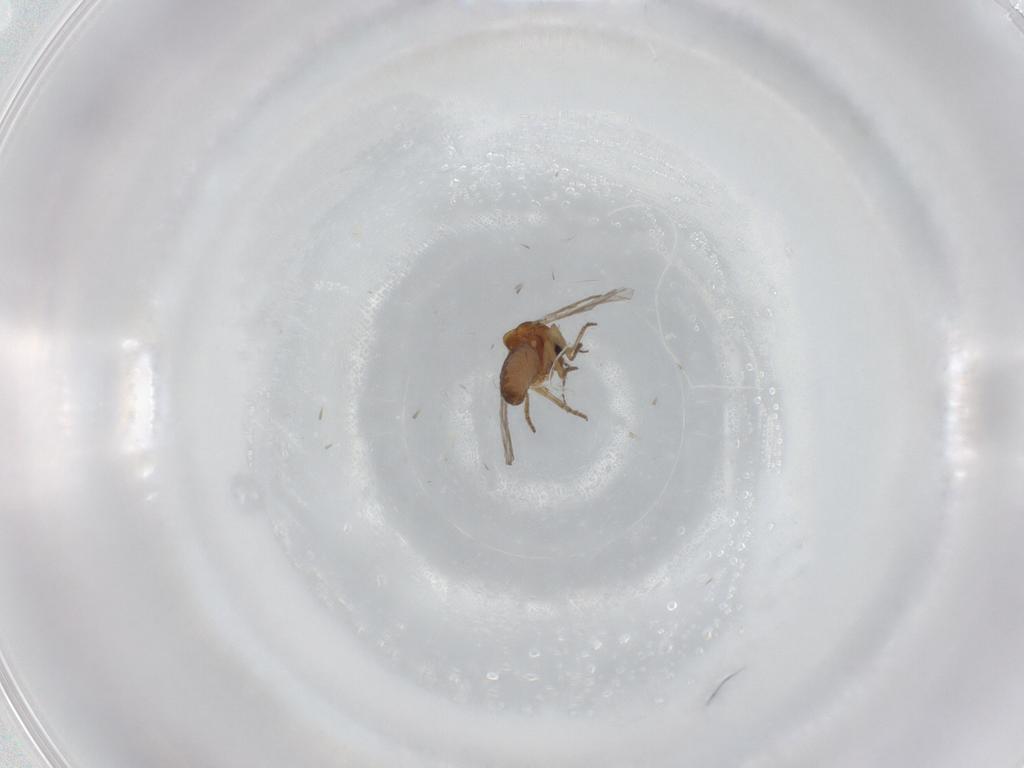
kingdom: Animalia
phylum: Arthropoda
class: Insecta
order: Diptera
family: Ceratopogonidae
